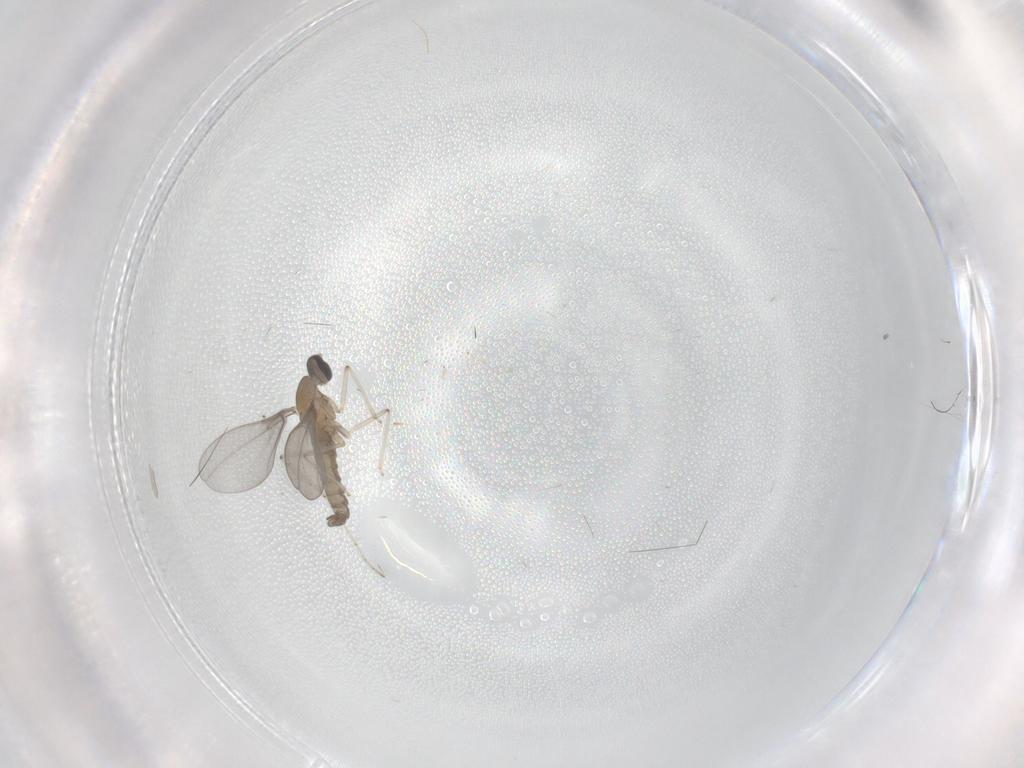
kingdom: Animalia
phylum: Arthropoda
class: Insecta
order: Diptera
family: Cecidomyiidae
